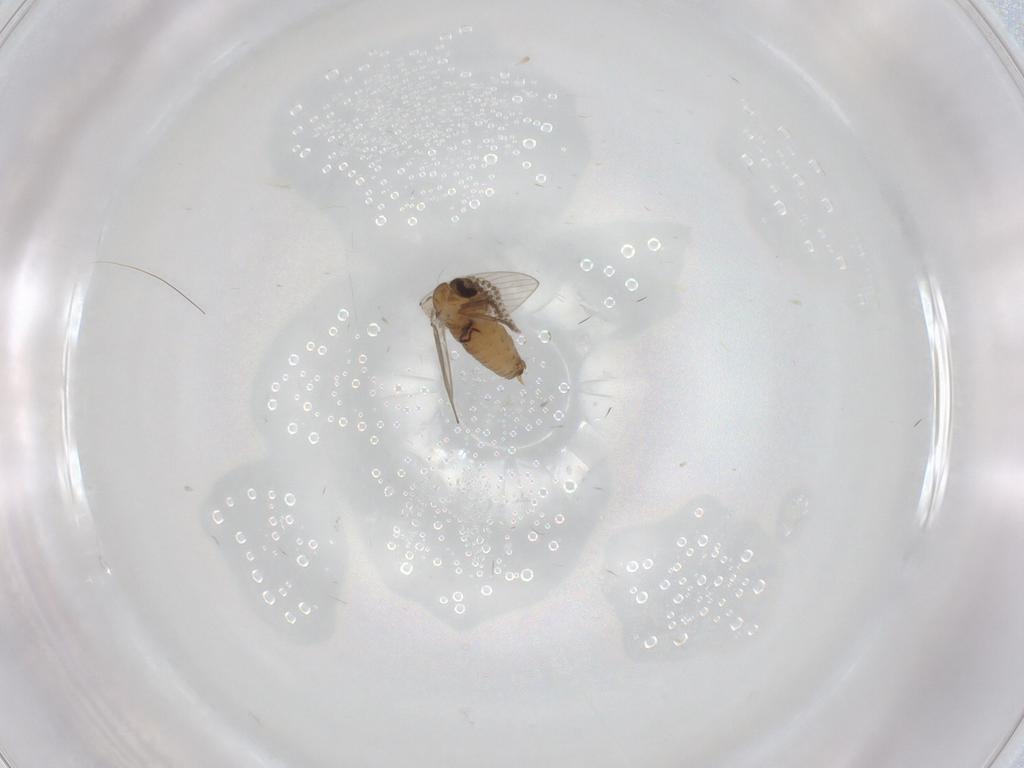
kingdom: Animalia
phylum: Arthropoda
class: Insecta
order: Diptera
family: Psychodidae
